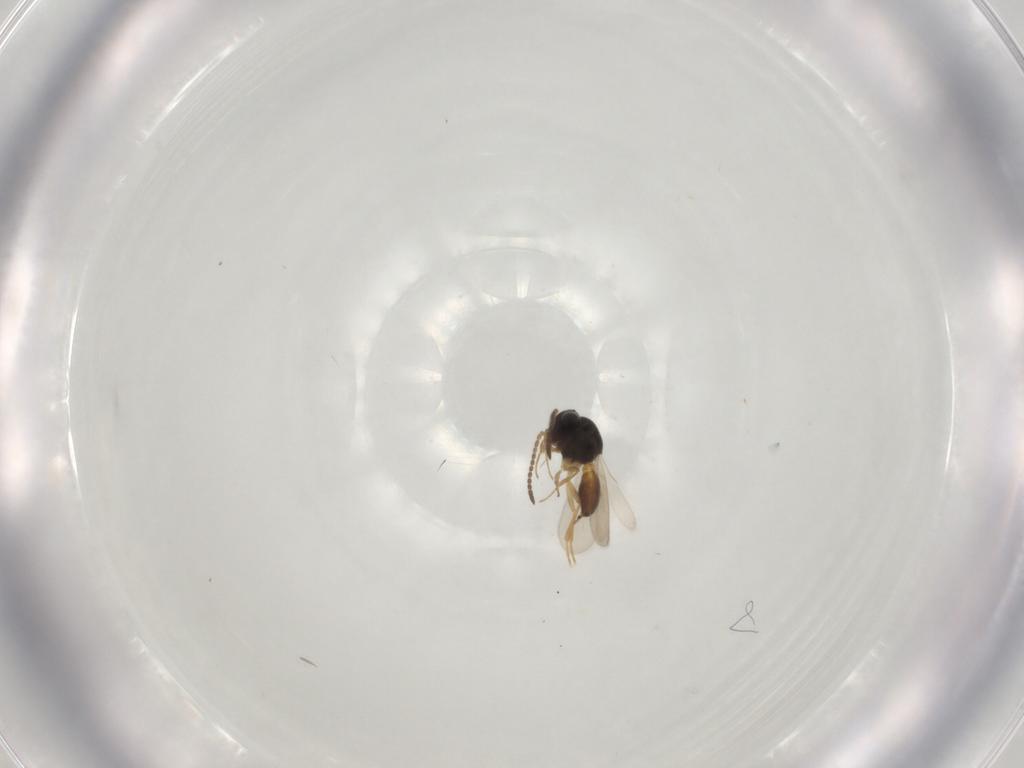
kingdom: Animalia
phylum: Arthropoda
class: Insecta
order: Hymenoptera
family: Scelionidae
